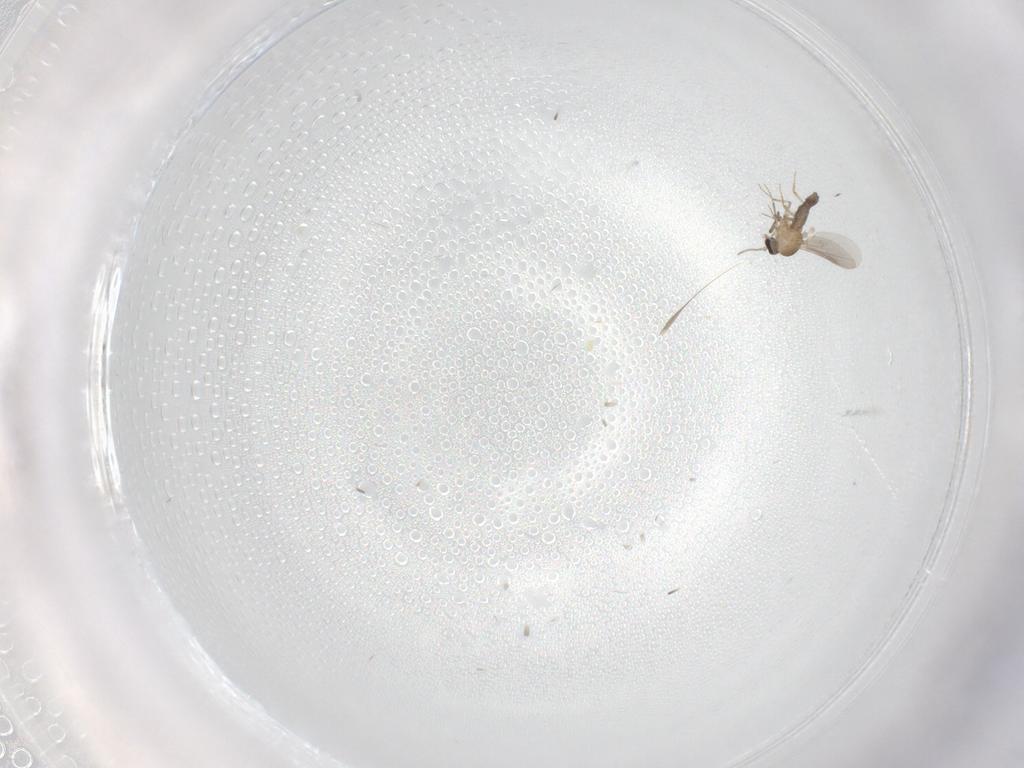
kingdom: Animalia
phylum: Arthropoda
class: Insecta
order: Diptera
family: Ceratopogonidae
